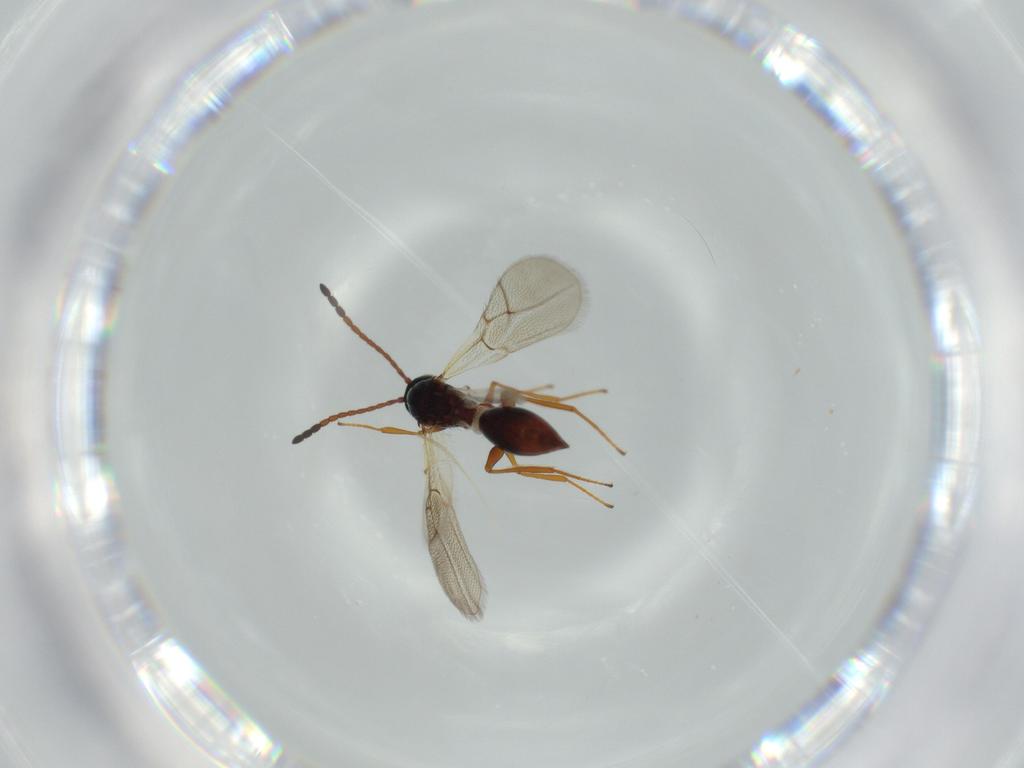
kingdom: Animalia
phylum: Arthropoda
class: Insecta
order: Hymenoptera
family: Figitidae
